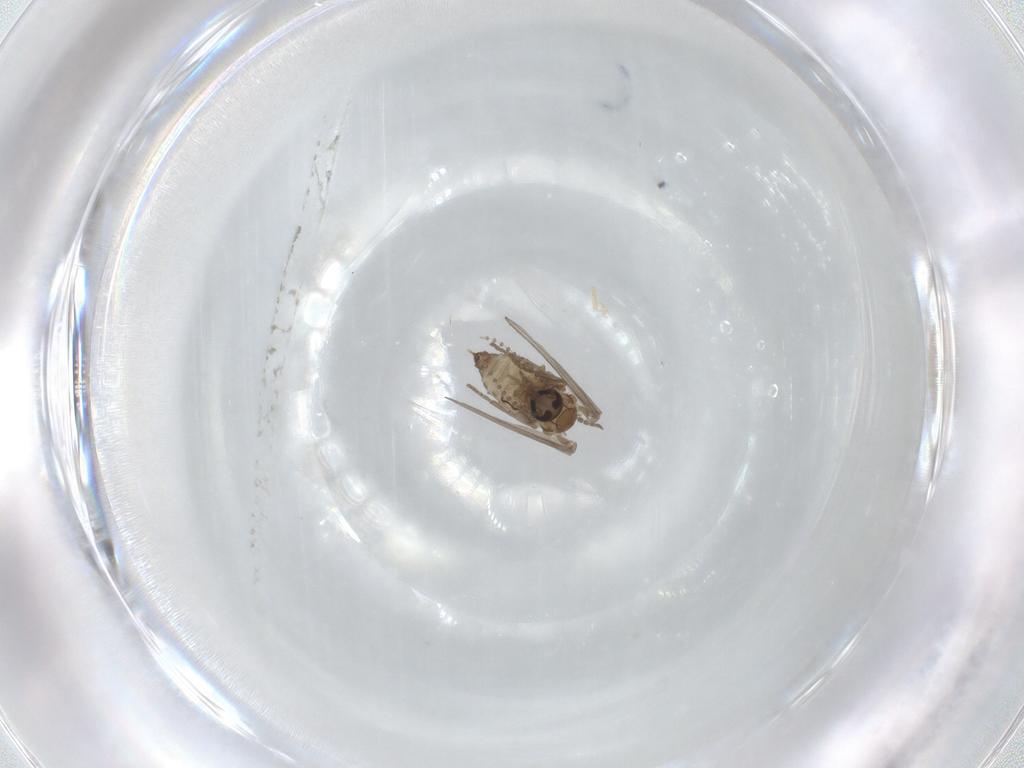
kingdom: Animalia
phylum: Arthropoda
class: Insecta
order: Diptera
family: Psychodidae
